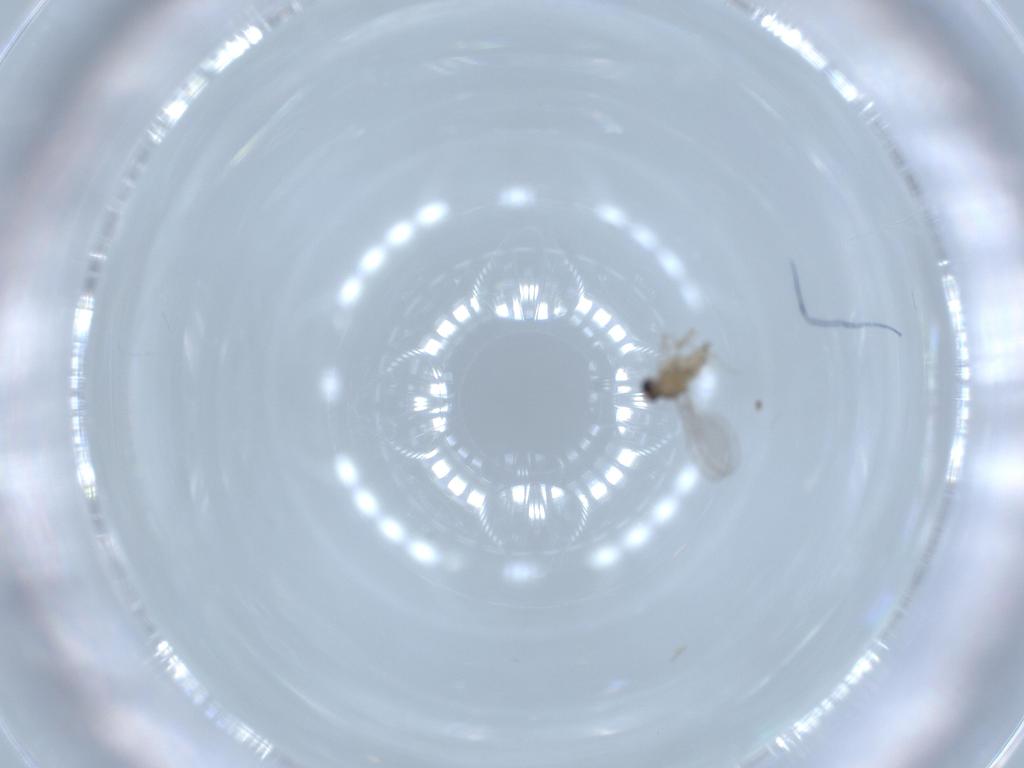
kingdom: Animalia
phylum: Arthropoda
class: Insecta
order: Diptera
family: Cecidomyiidae
